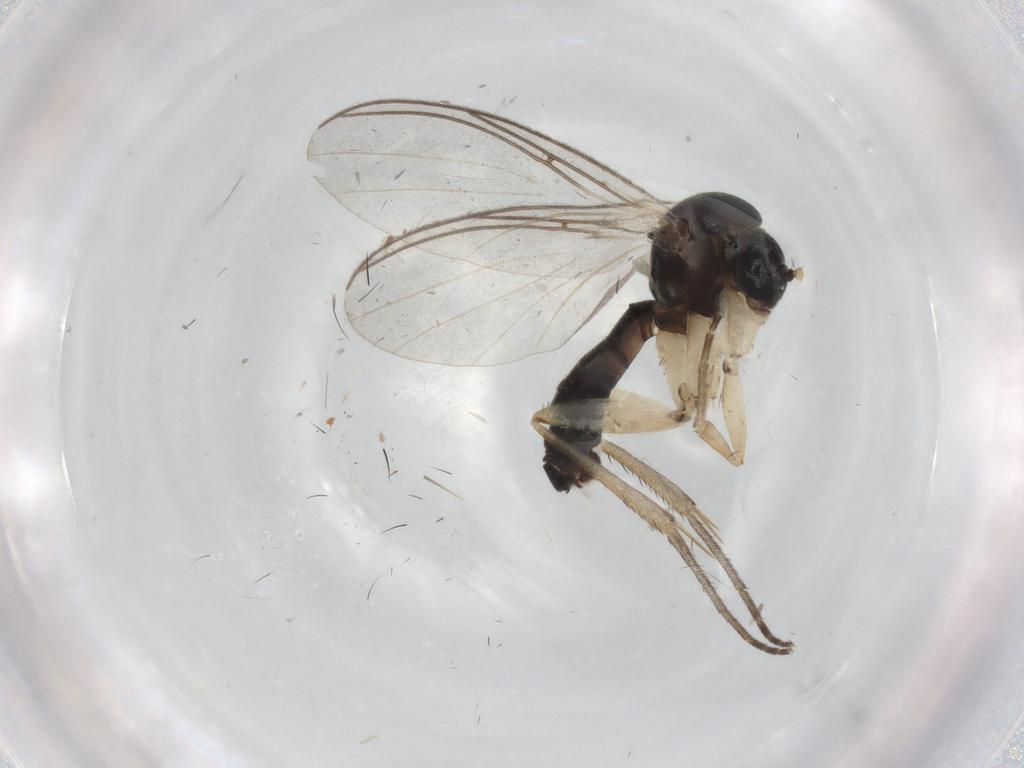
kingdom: Animalia
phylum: Arthropoda
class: Insecta
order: Diptera
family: Mycetophilidae
